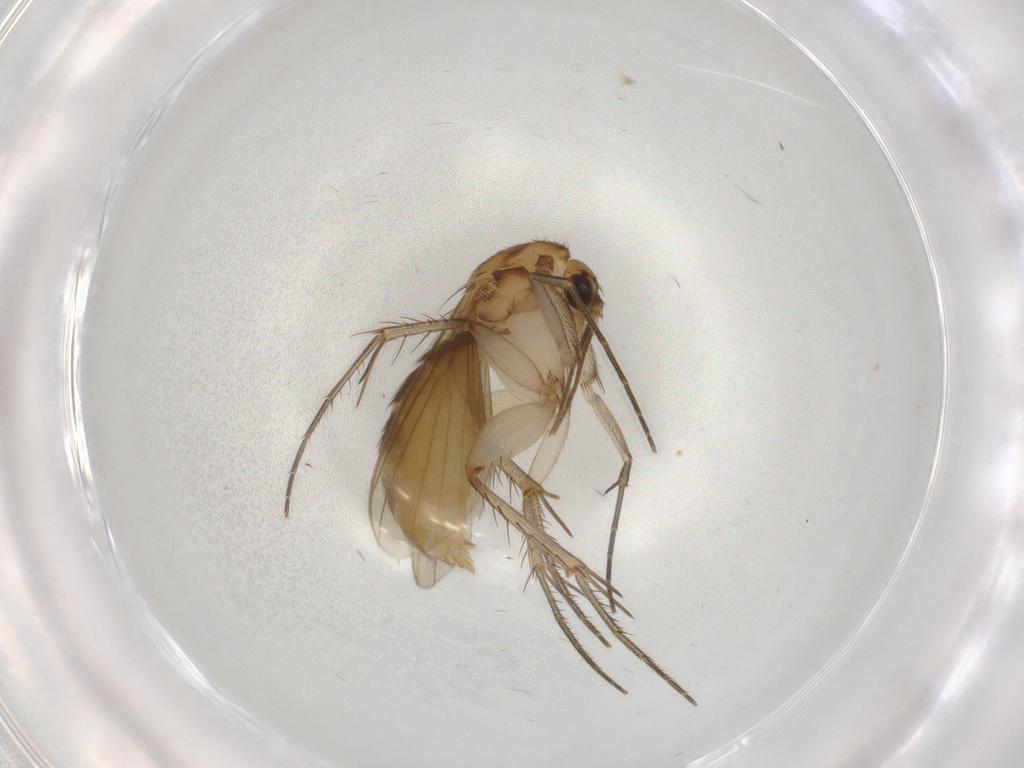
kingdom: Animalia
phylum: Arthropoda
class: Insecta
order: Diptera
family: Mycetophilidae
